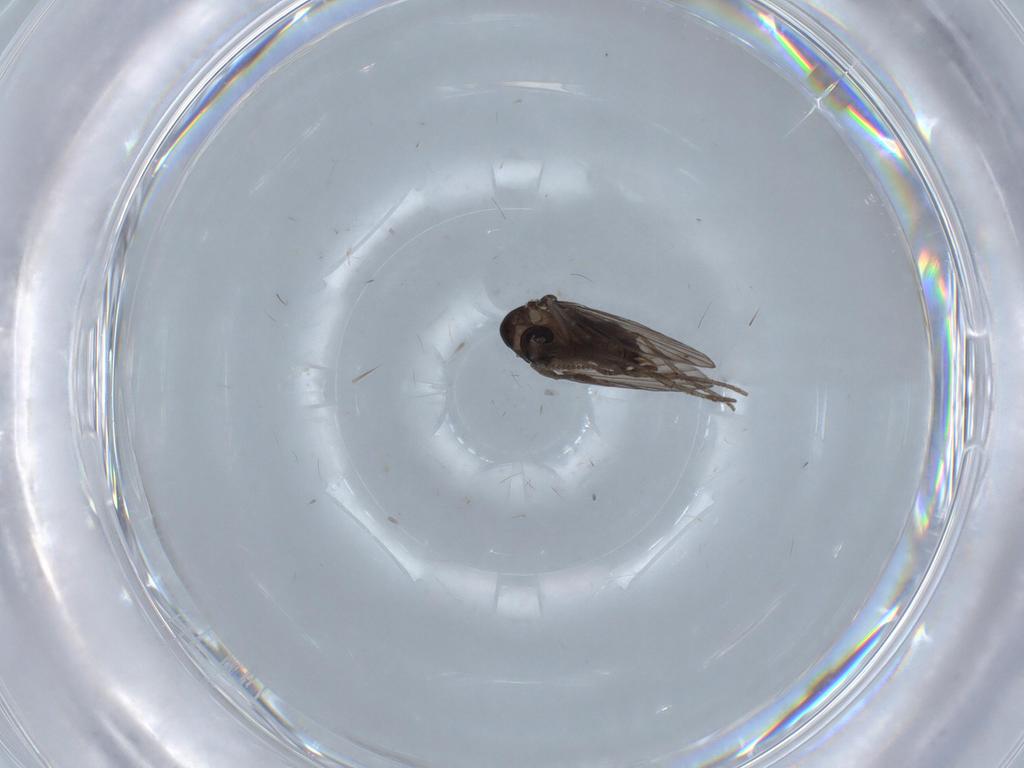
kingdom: Animalia
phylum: Arthropoda
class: Insecta
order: Diptera
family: Psychodidae
